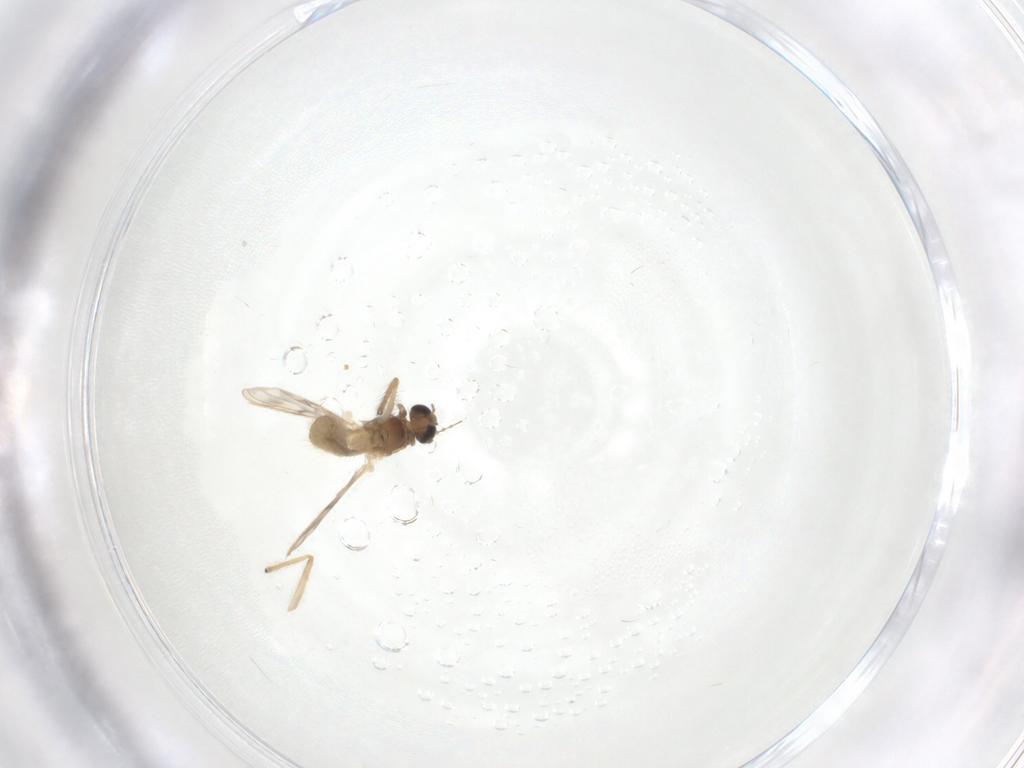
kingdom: Animalia
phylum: Arthropoda
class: Insecta
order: Diptera
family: Chironomidae
